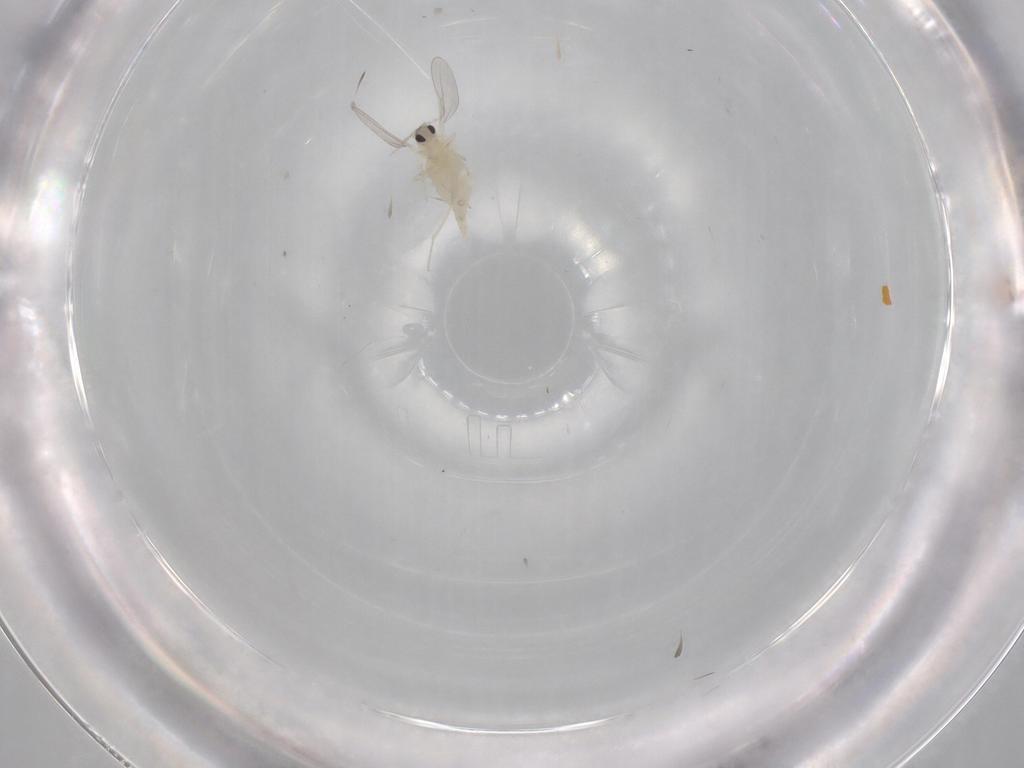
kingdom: Animalia
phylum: Arthropoda
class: Insecta
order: Diptera
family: Cecidomyiidae
